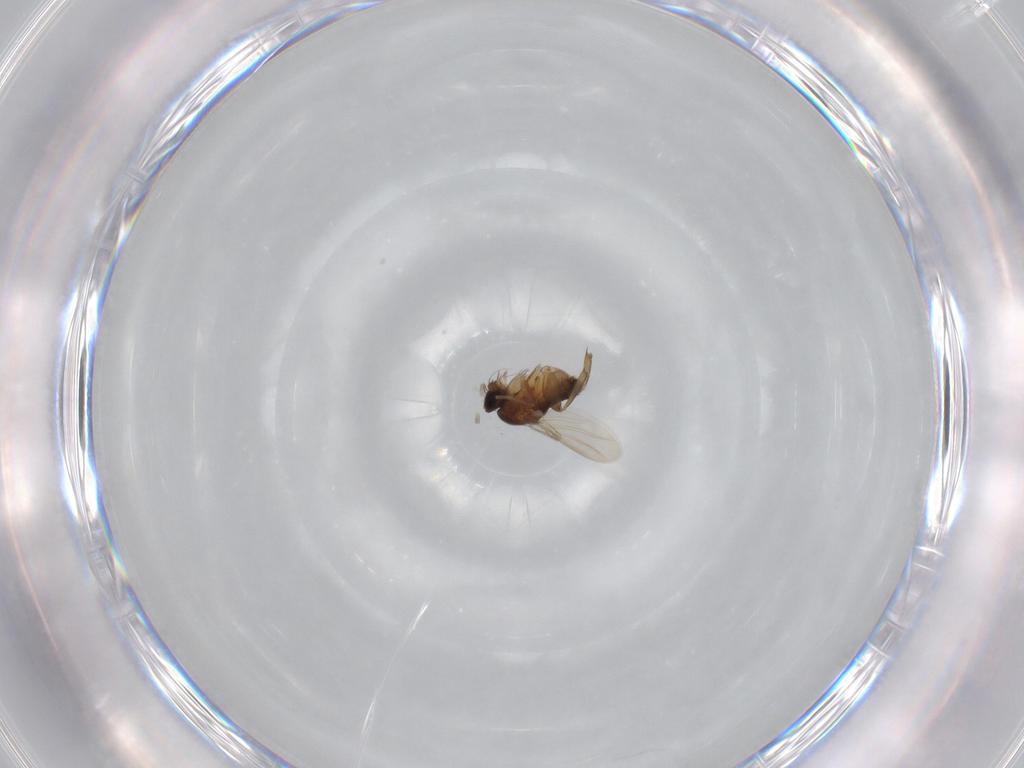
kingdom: Animalia
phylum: Arthropoda
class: Insecta
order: Diptera
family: Phoridae
